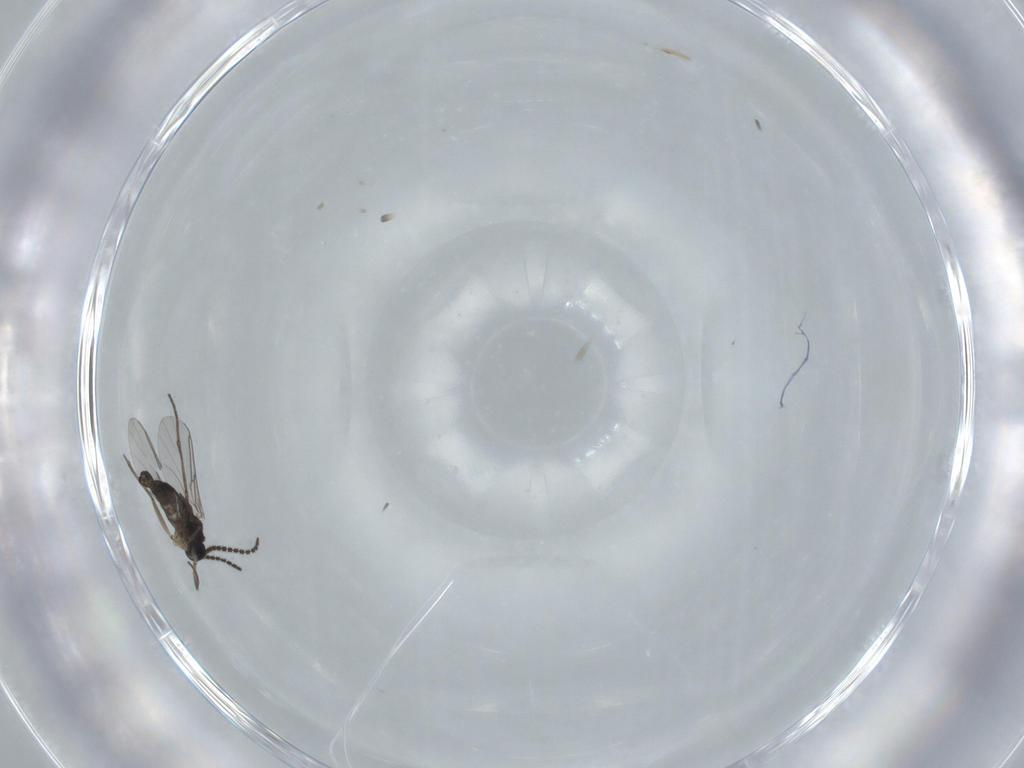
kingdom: Animalia
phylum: Arthropoda
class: Insecta
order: Diptera
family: Sciaridae
